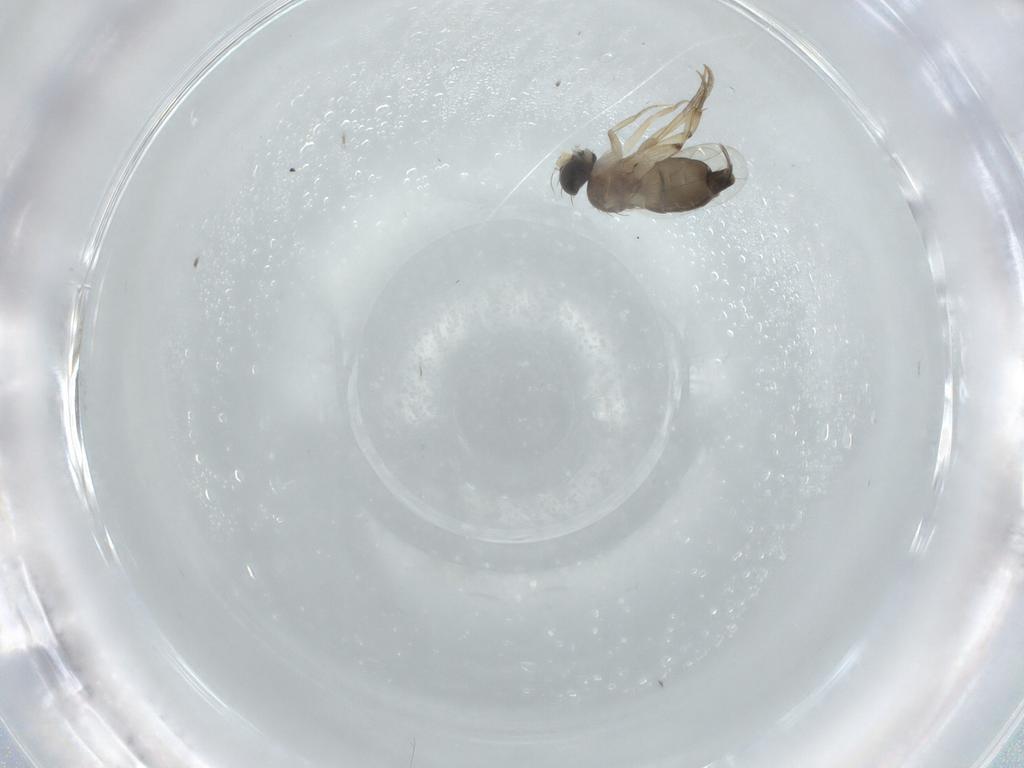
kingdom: Animalia
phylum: Arthropoda
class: Insecta
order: Diptera
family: Phoridae
